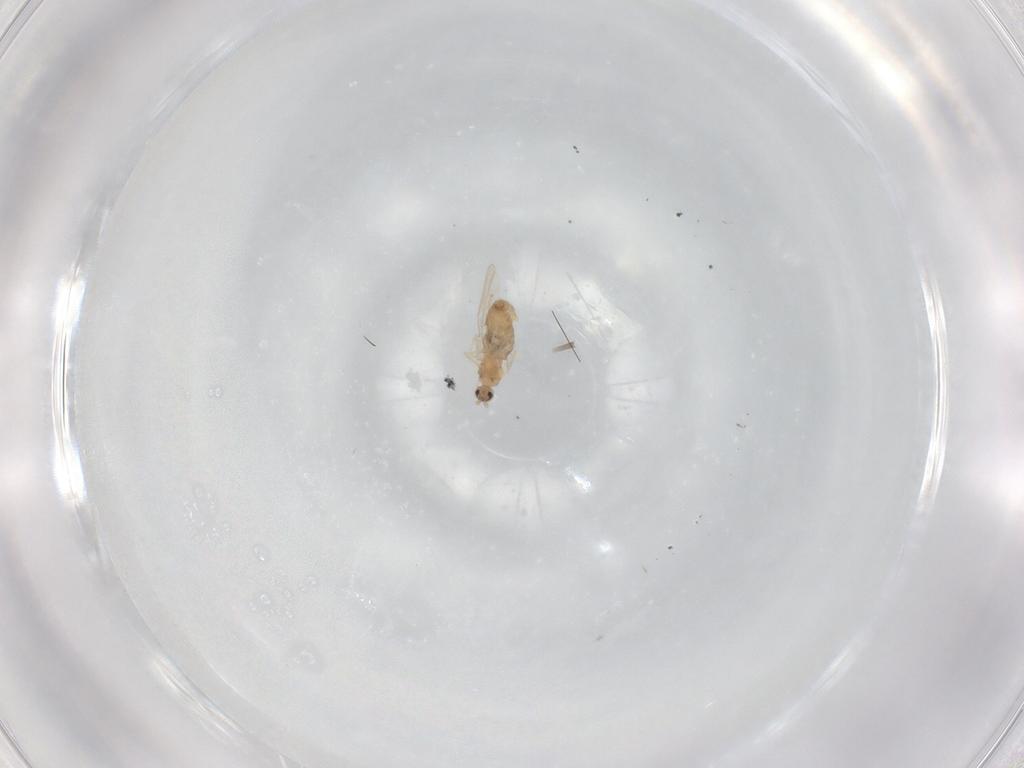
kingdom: Animalia
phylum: Arthropoda
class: Insecta
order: Diptera
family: Cecidomyiidae
